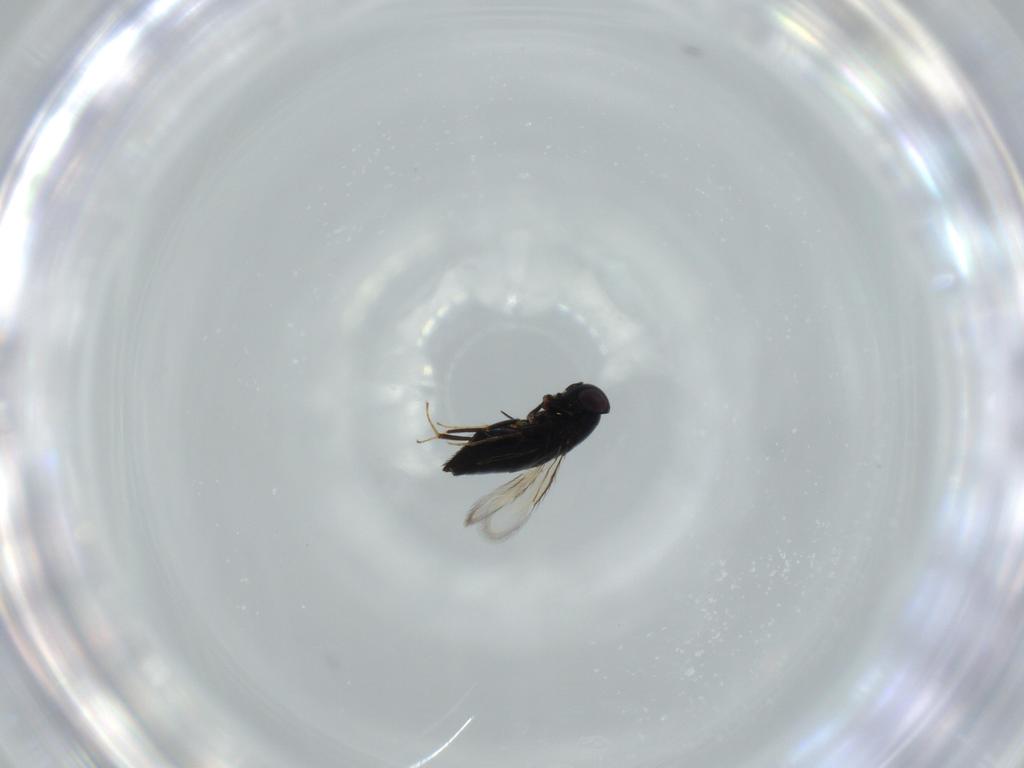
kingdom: Animalia
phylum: Arthropoda
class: Insecta
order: Hymenoptera
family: Signiphoridae
